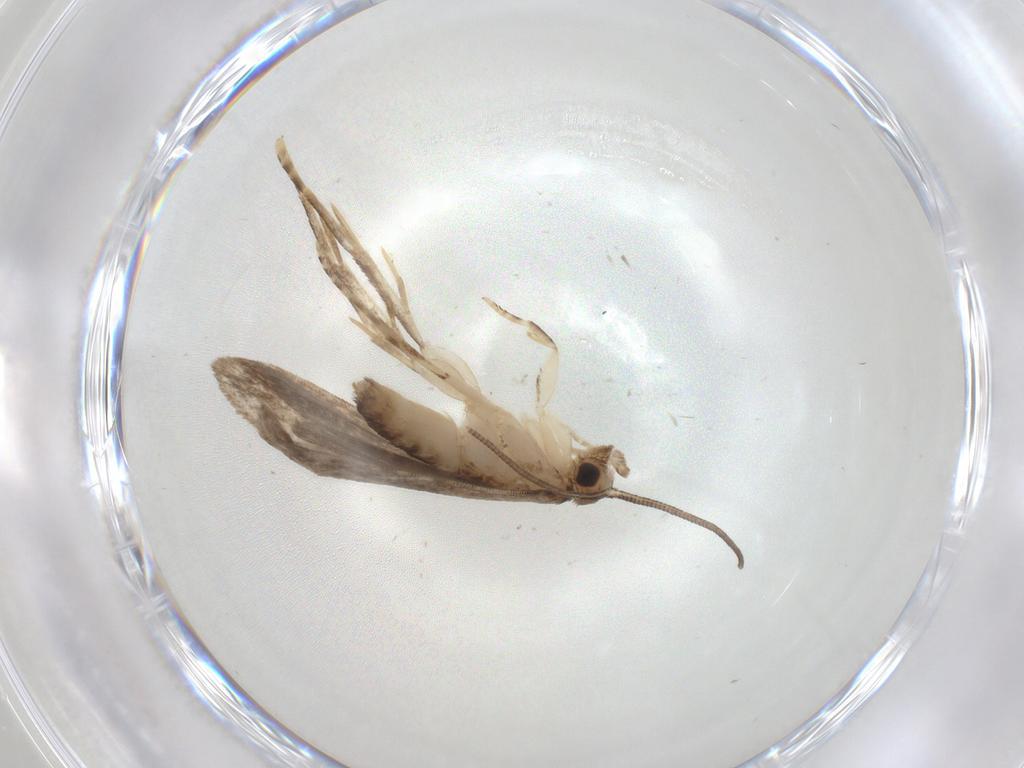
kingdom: Animalia
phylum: Arthropoda
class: Insecta
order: Lepidoptera
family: Dryadaulidae
